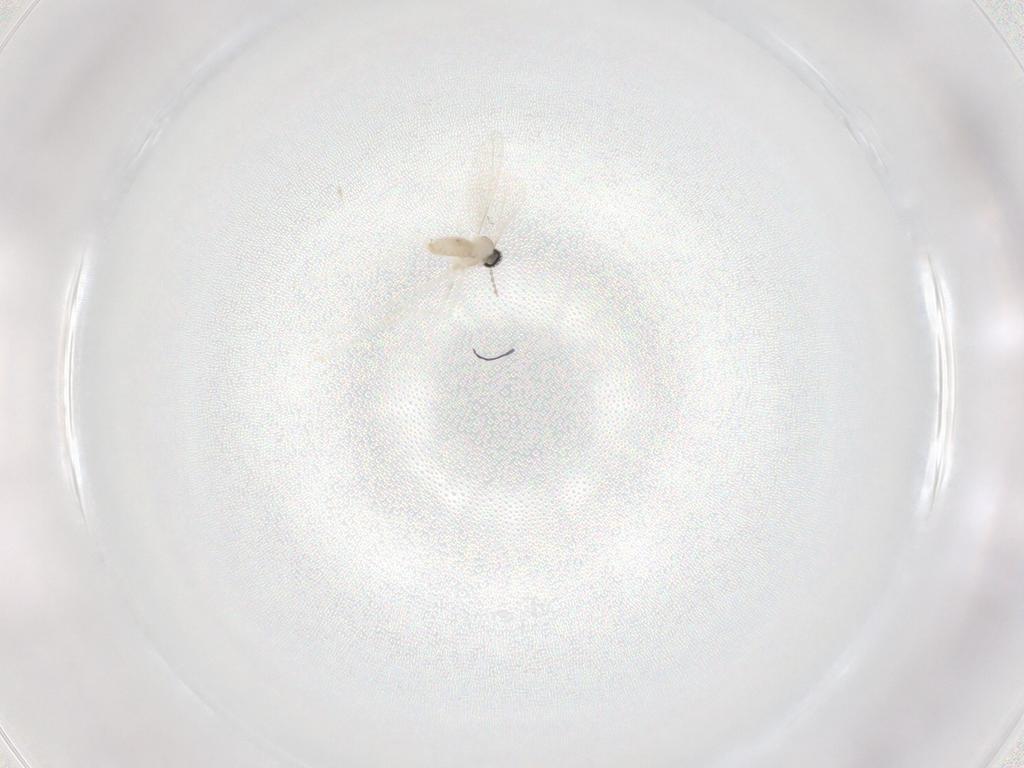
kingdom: Animalia
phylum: Arthropoda
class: Insecta
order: Diptera
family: Cecidomyiidae
